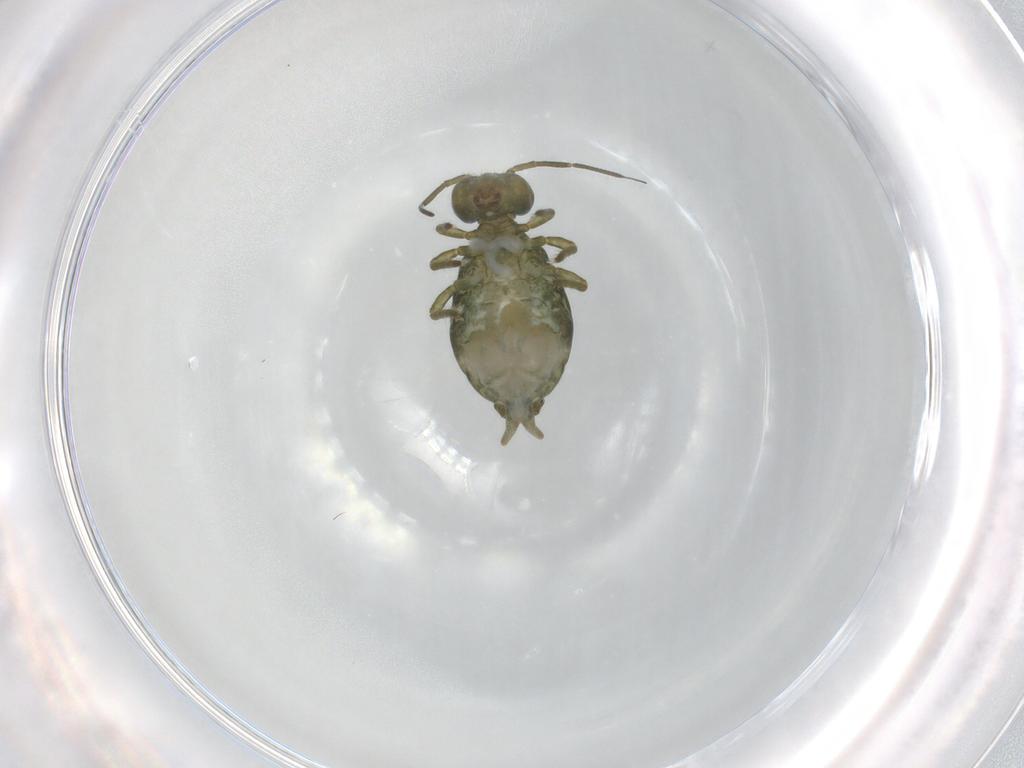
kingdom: Animalia
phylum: Arthropoda
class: Collembola
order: Symphypleona
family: Sminthuridae
